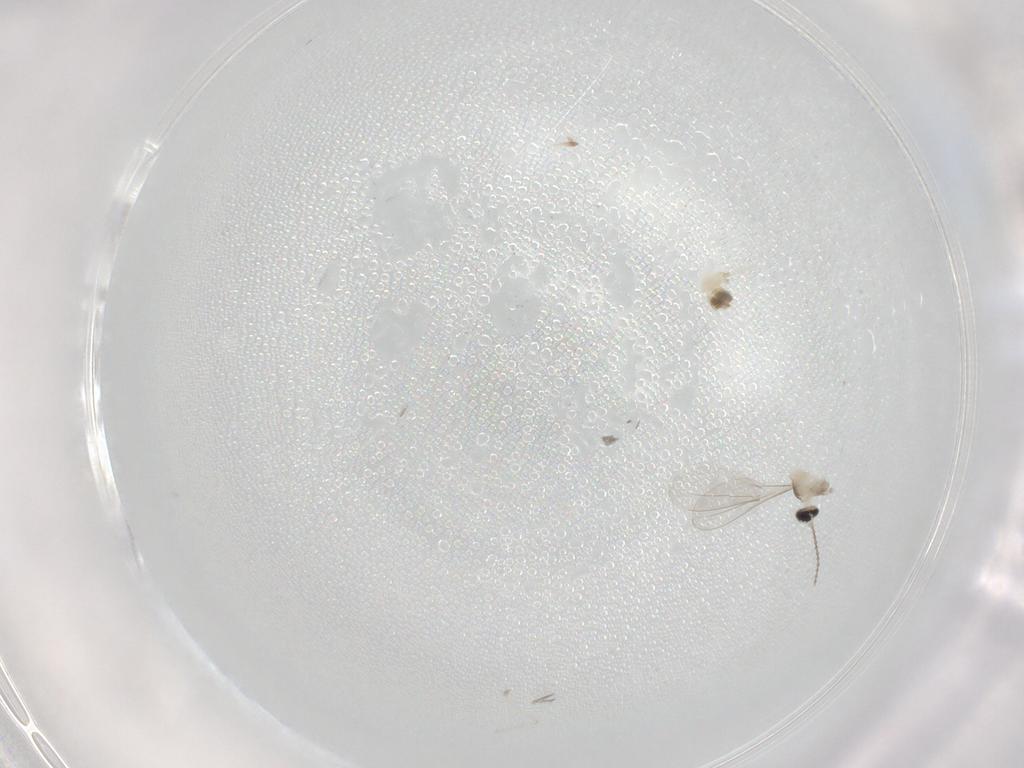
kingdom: Animalia
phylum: Arthropoda
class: Insecta
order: Diptera
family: Cecidomyiidae
